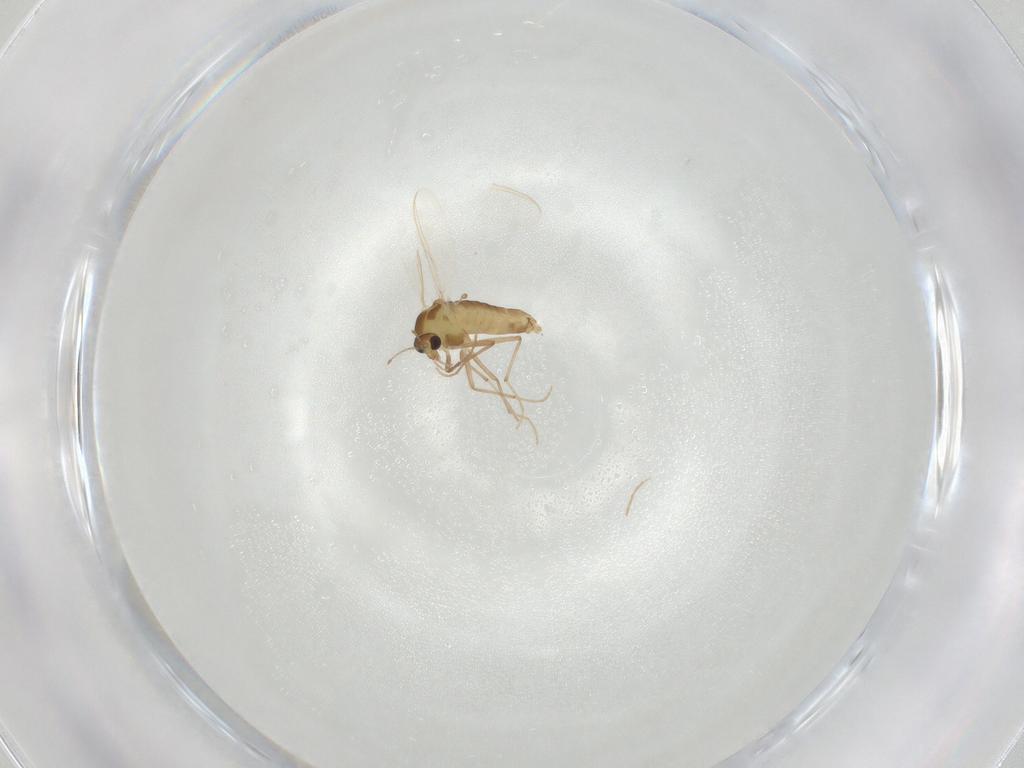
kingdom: Animalia
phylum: Arthropoda
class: Insecta
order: Diptera
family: Chironomidae
